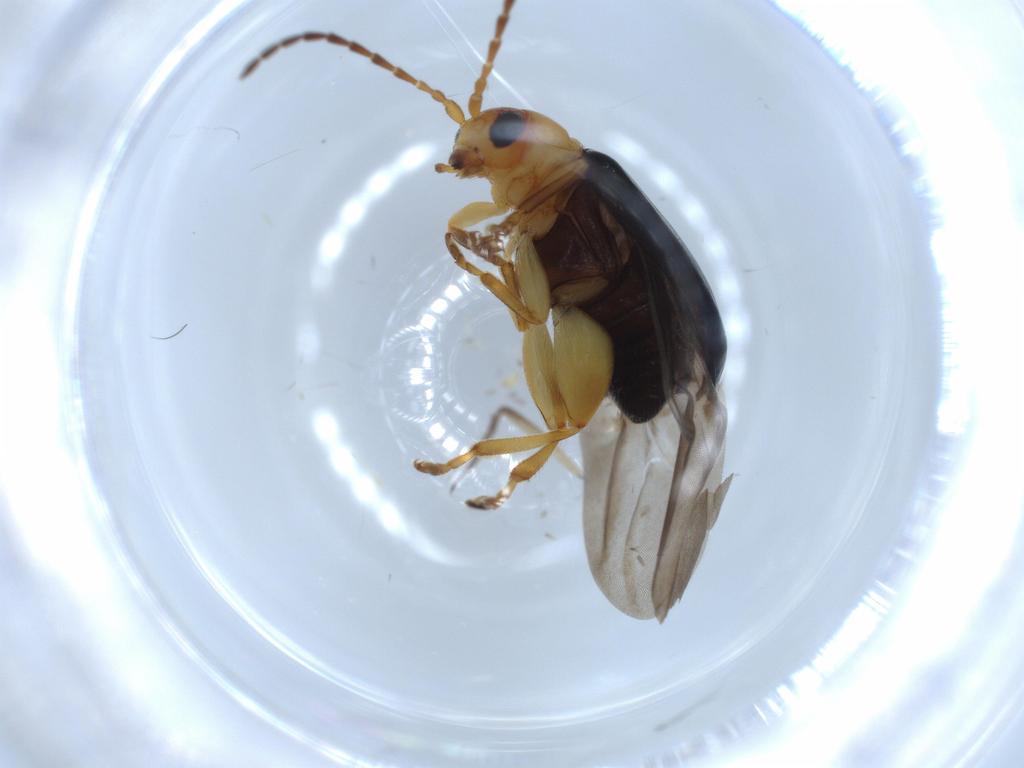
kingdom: Animalia
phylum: Arthropoda
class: Insecta
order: Coleoptera
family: Chrysomelidae
